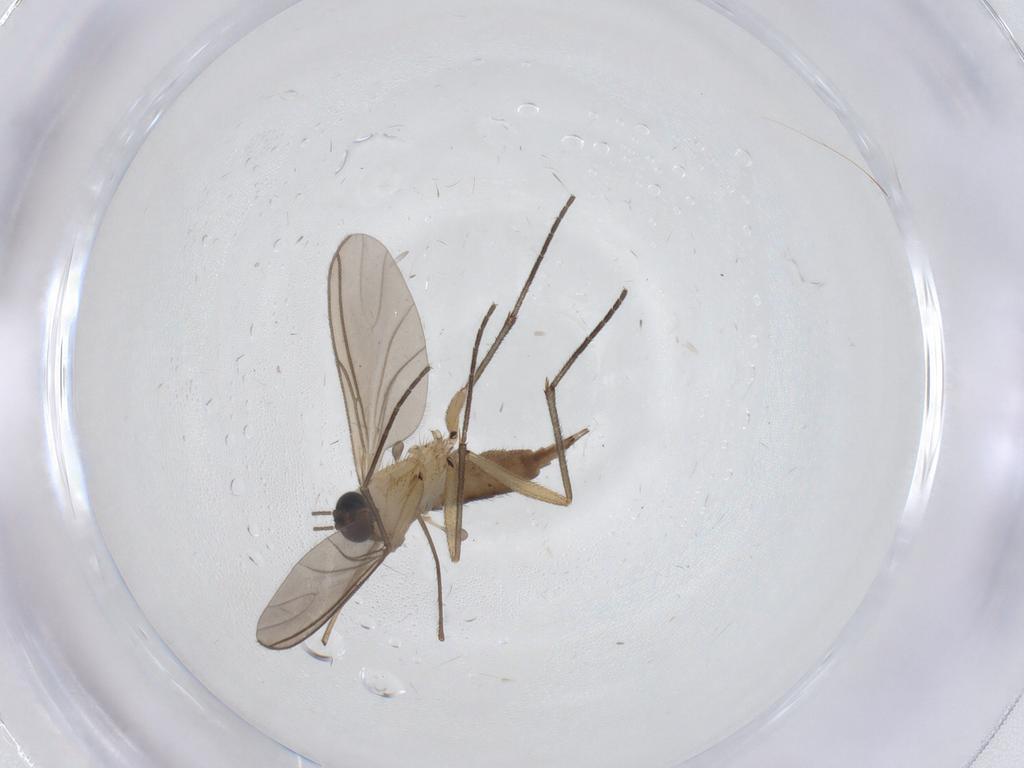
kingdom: Animalia
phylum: Arthropoda
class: Insecta
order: Diptera
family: Sciaridae
